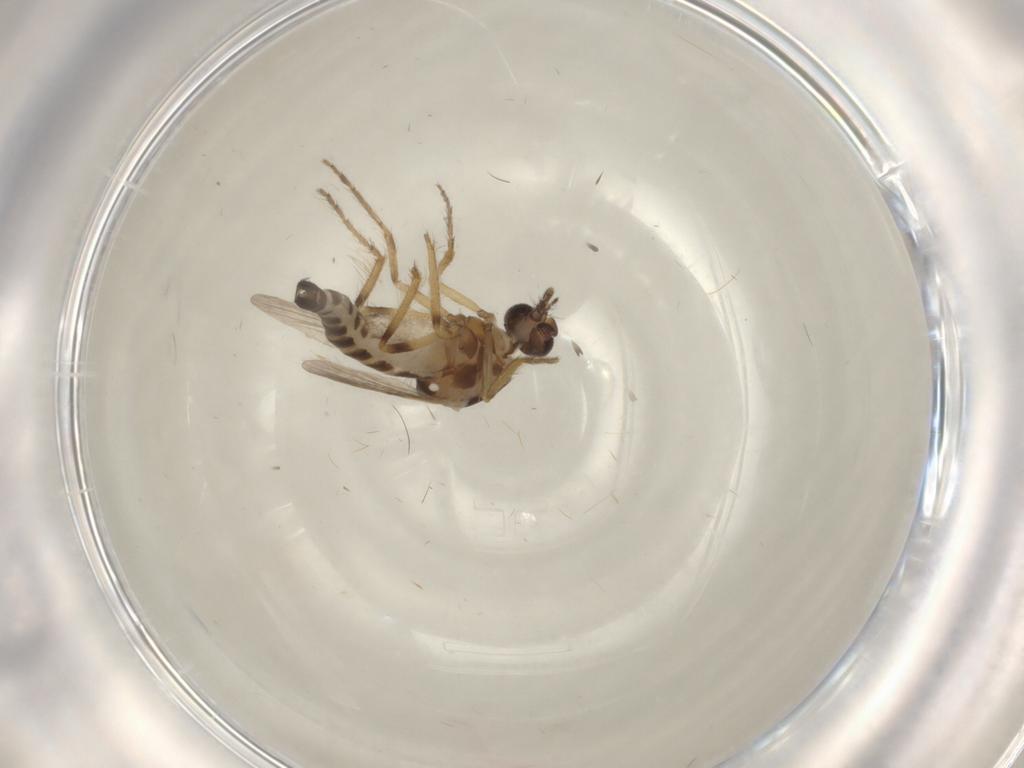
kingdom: Animalia
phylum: Arthropoda
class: Insecta
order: Diptera
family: Ceratopogonidae
